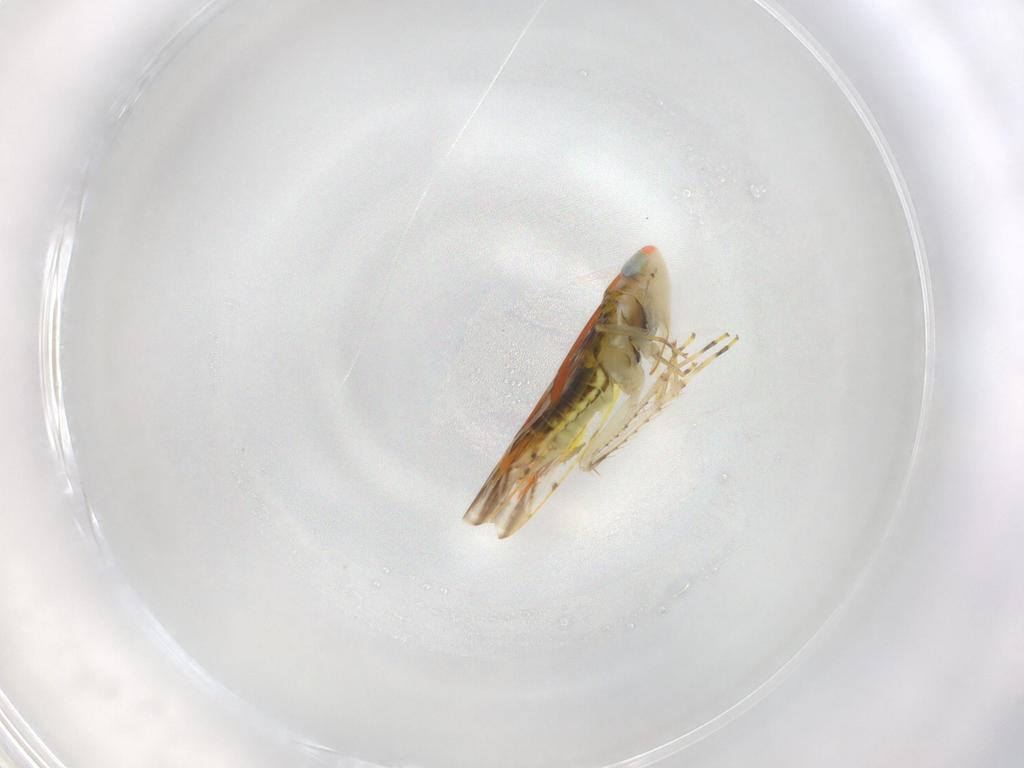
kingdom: Animalia
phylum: Arthropoda
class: Insecta
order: Hemiptera
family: Cicadellidae
